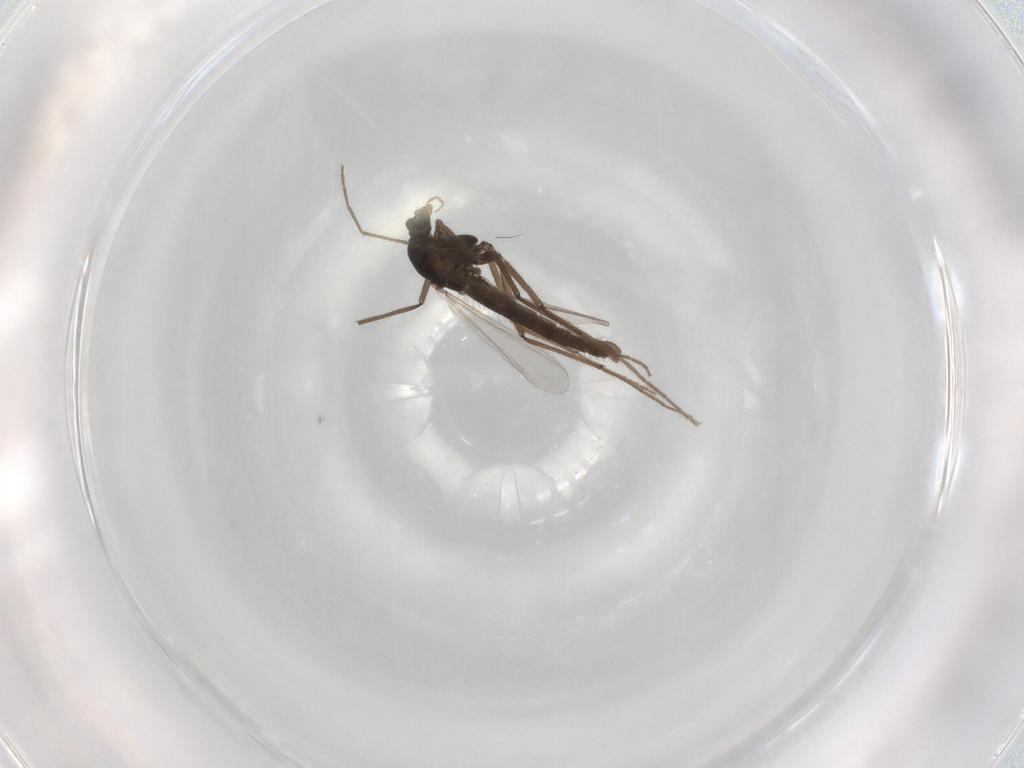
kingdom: Animalia
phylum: Arthropoda
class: Insecta
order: Diptera
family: Chironomidae
